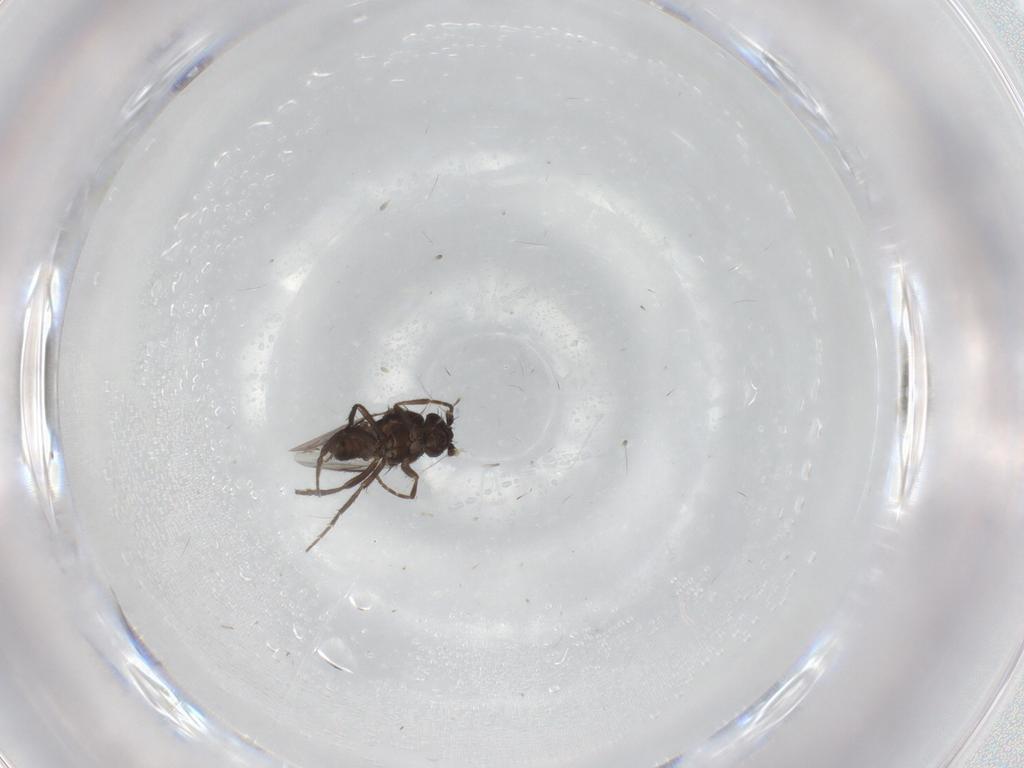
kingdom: Animalia
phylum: Arthropoda
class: Insecta
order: Diptera
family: Sphaeroceridae
